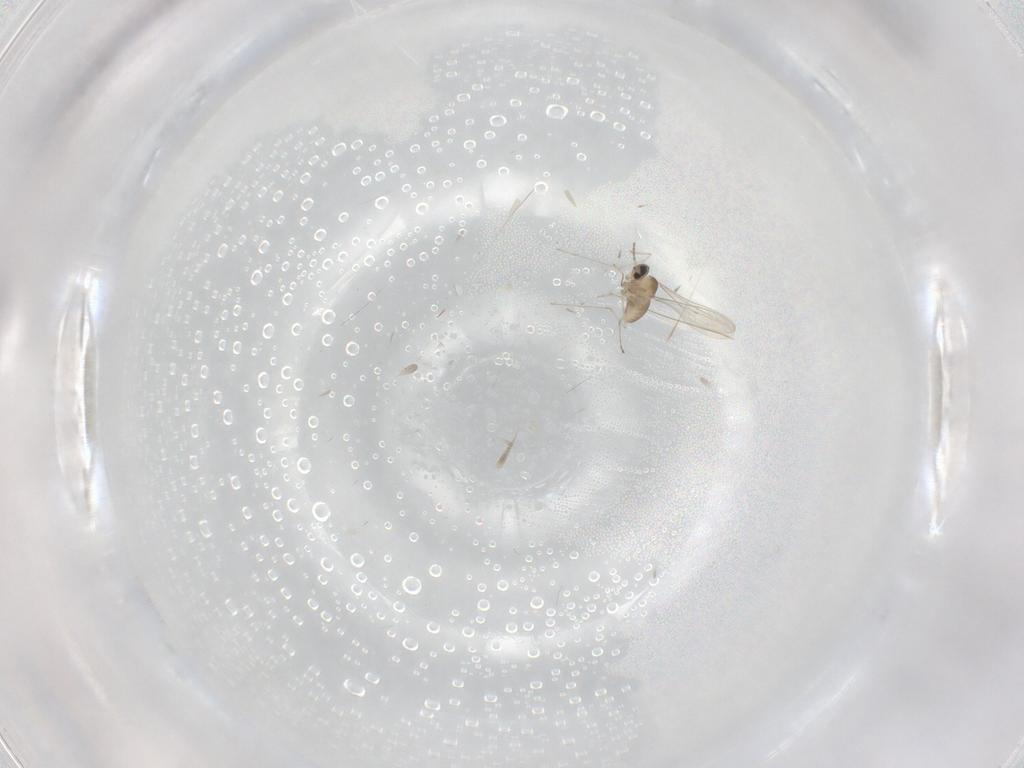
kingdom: Animalia
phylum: Arthropoda
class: Insecta
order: Diptera
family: Cecidomyiidae
